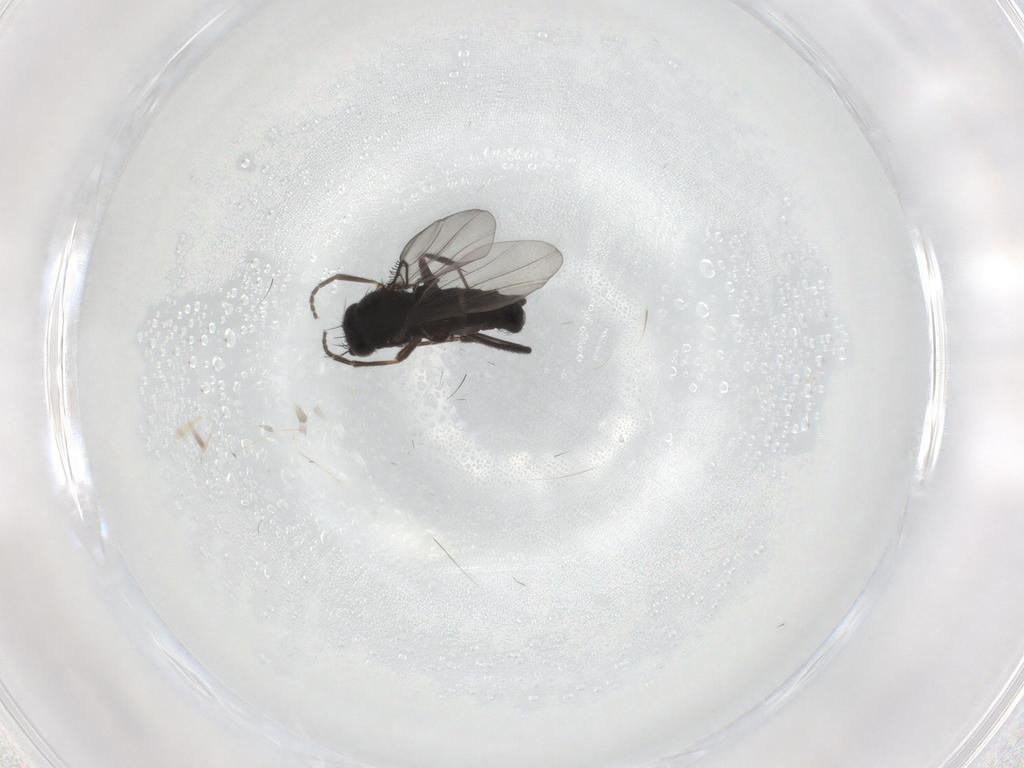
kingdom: Animalia
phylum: Arthropoda
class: Insecta
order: Diptera
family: Phoridae
